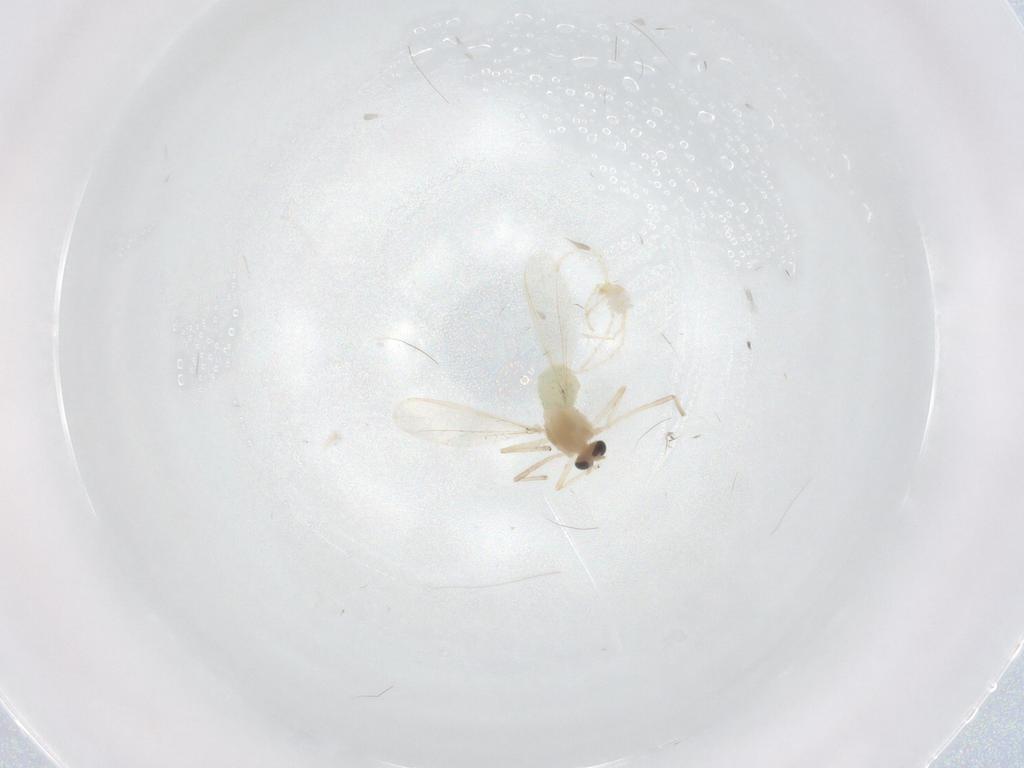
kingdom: Animalia
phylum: Arthropoda
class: Insecta
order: Diptera
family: Chironomidae
